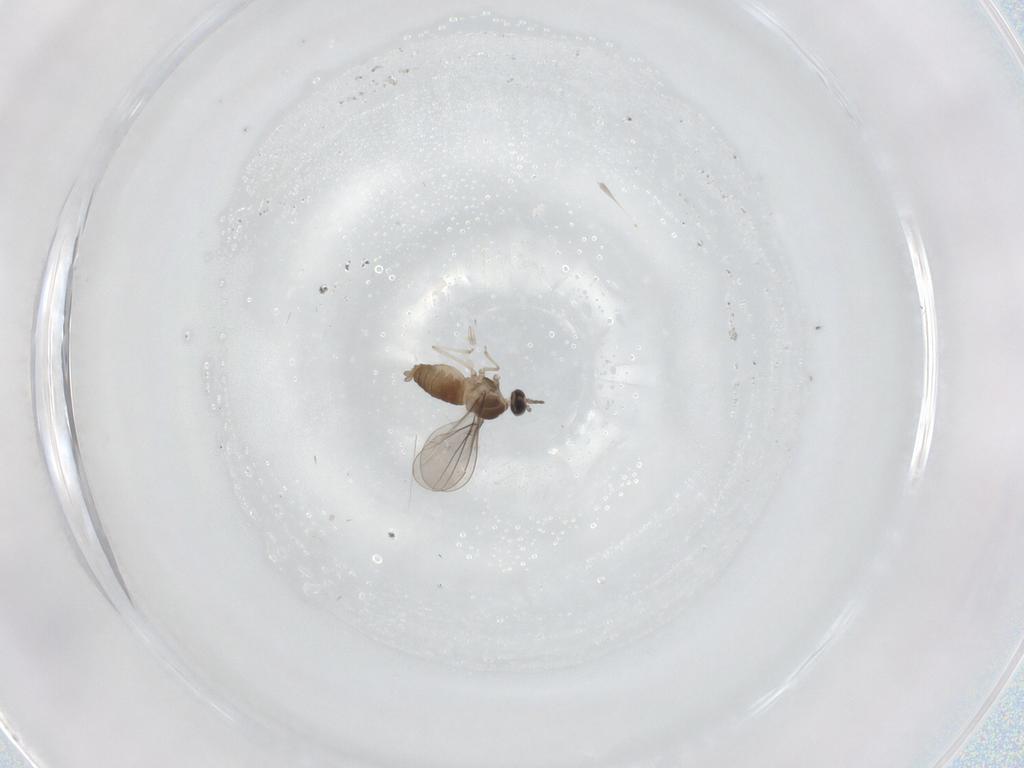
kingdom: Animalia
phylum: Arthropoda
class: Insecta
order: Diptera
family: Cecidomyiidae
